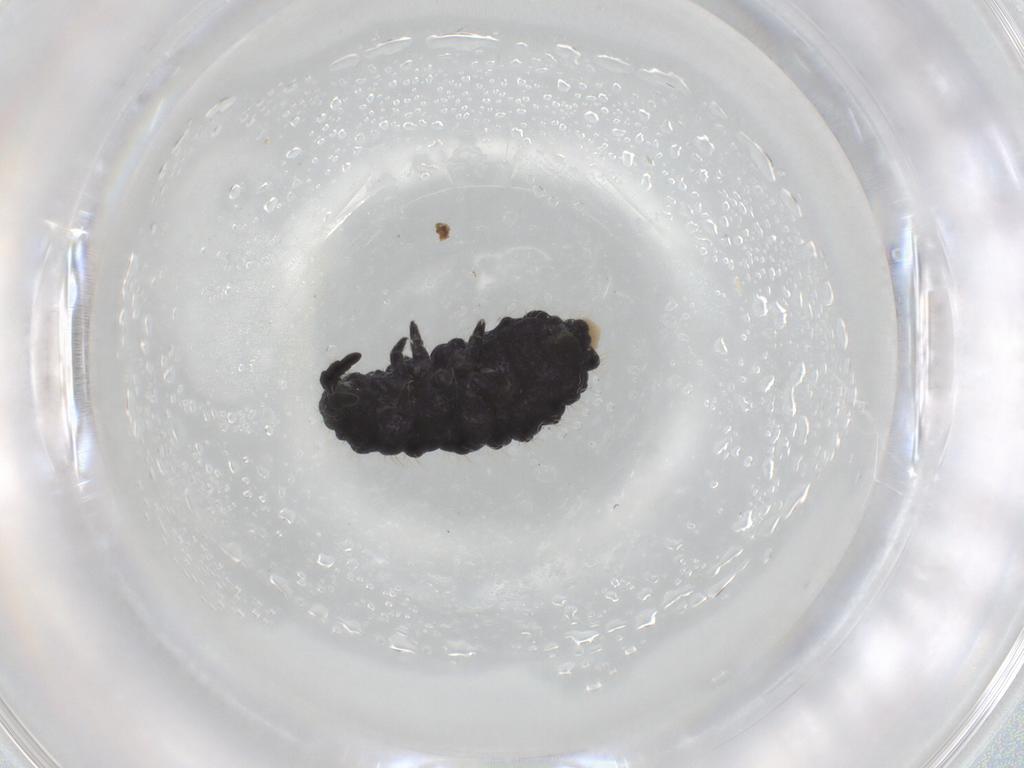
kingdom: Animalia
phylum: Arthropoda
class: Collembola
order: Poduromorpha
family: Neanuridae
